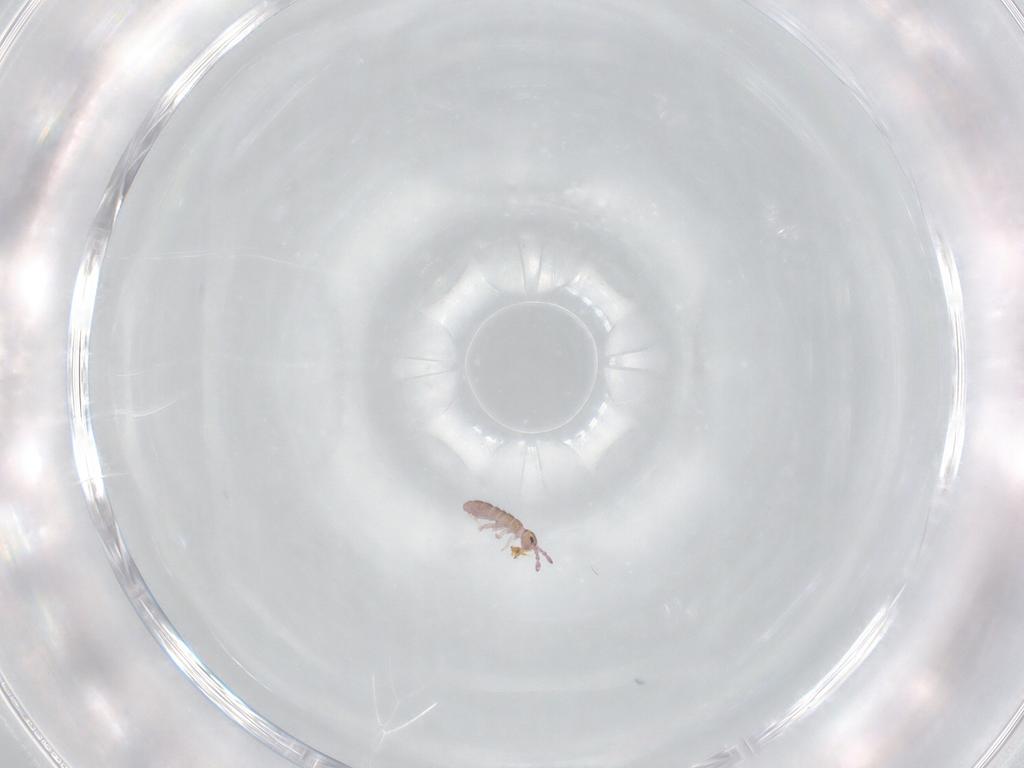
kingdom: Animalia
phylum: Arthropoda
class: Collembola
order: Entomobryomorpha
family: Isotomidae
